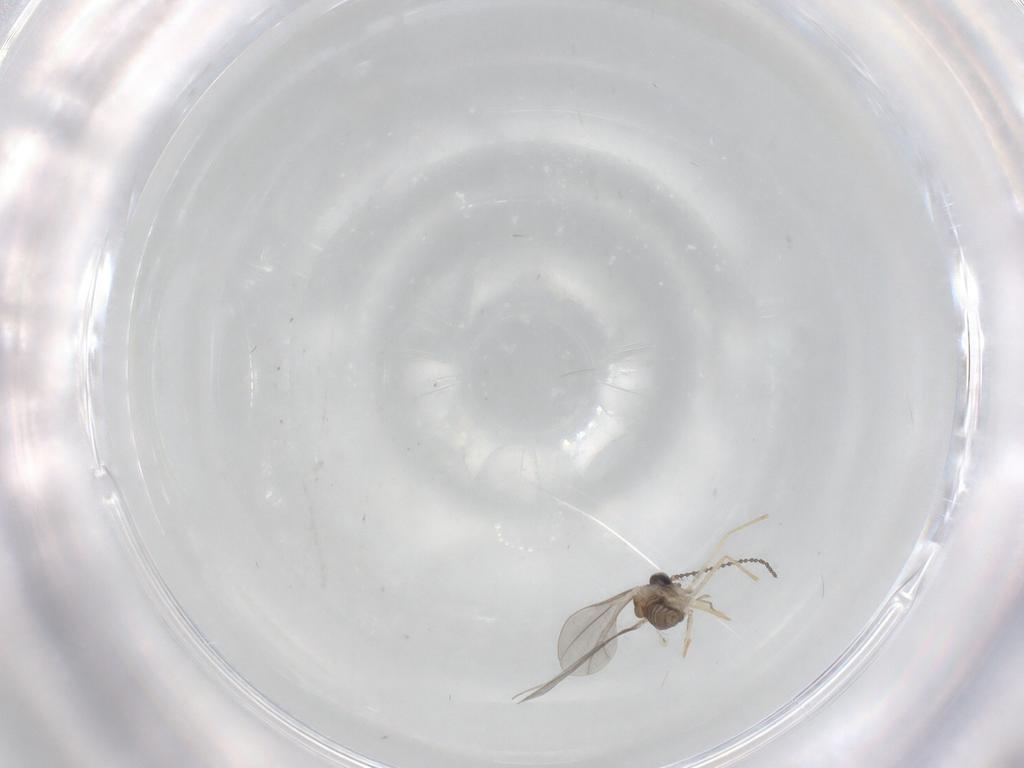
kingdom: Animalia
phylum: Arthropoda
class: Insecta
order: Diptera
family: Cecidomyiidae
